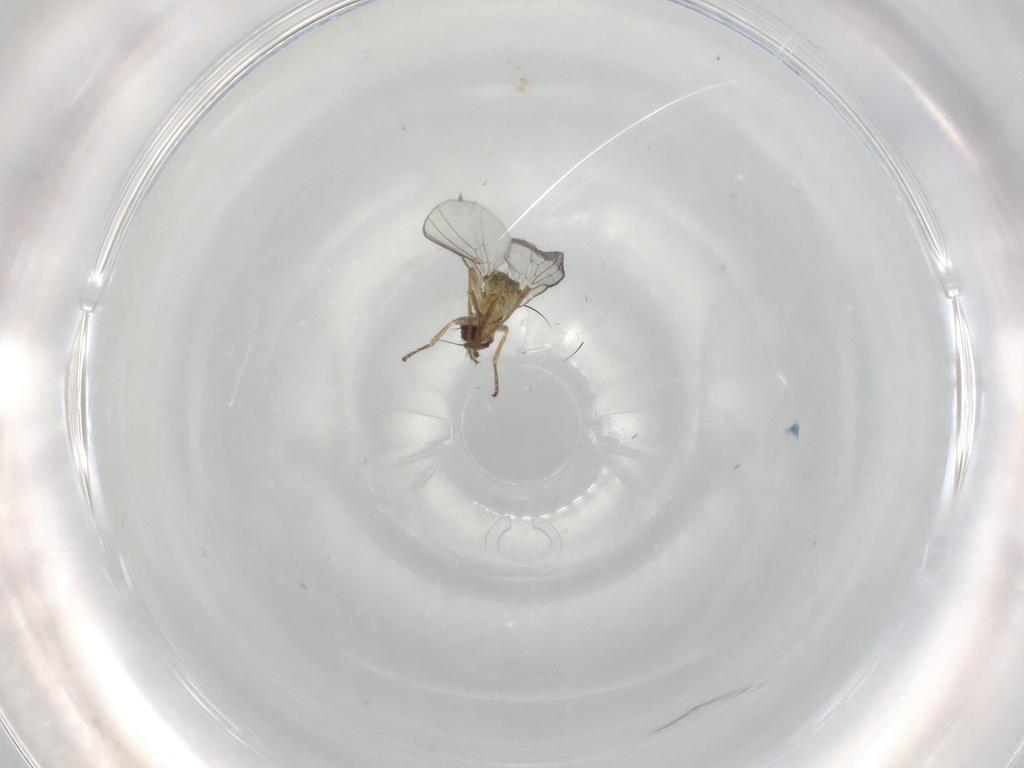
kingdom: Animalia
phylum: Arthropoda
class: Insecta
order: Diptera
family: Agromyzidae
